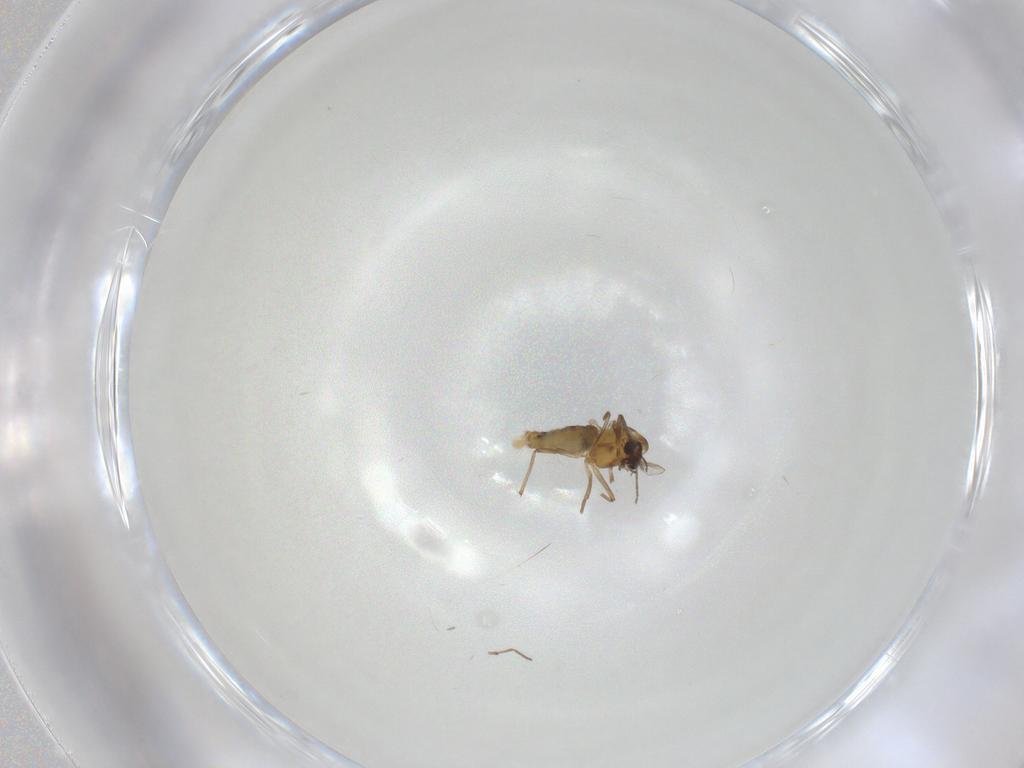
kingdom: Animalia
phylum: Arthropoda
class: Insecta
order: Diptera
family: Chironomidae
